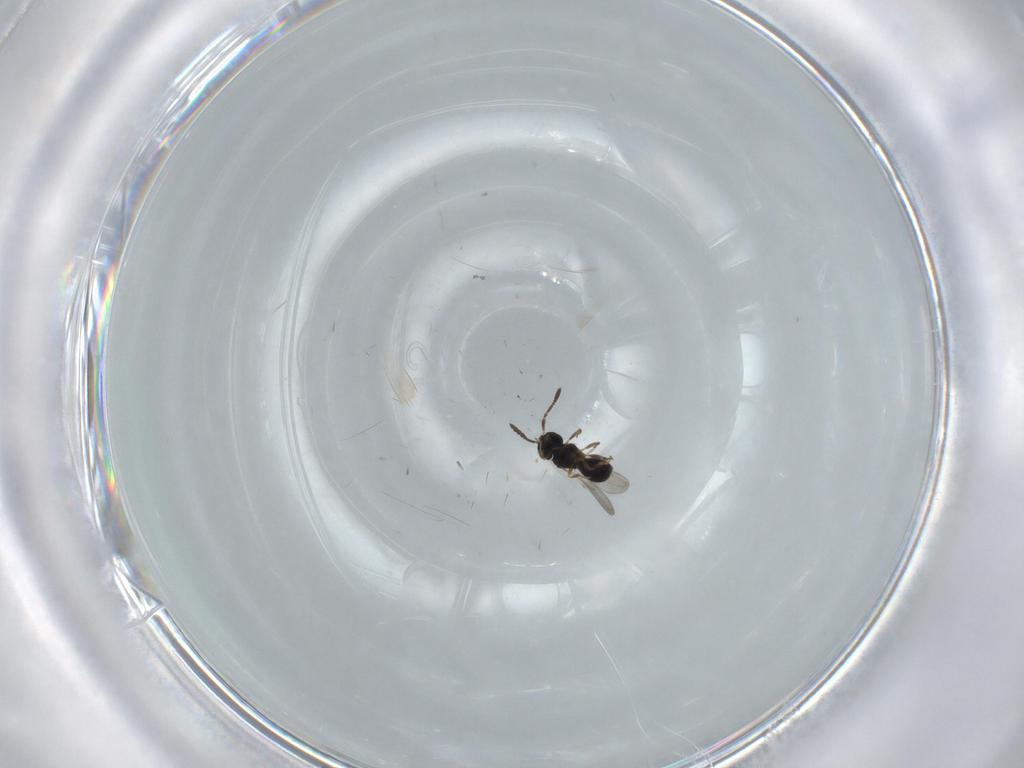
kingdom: Animalia
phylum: Arthropoda
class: Insecta
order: Hymenoptera
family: Scelionidae
